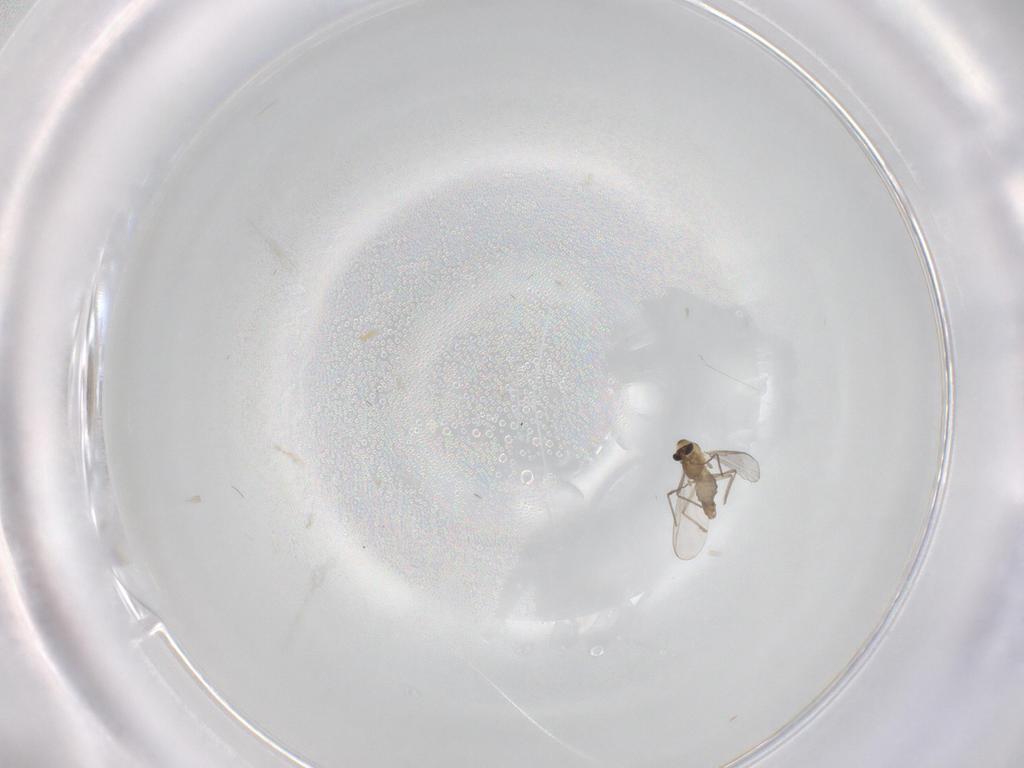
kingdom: Animalia
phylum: Arthropoda
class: Insecta
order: Diptera
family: Chironomidae
